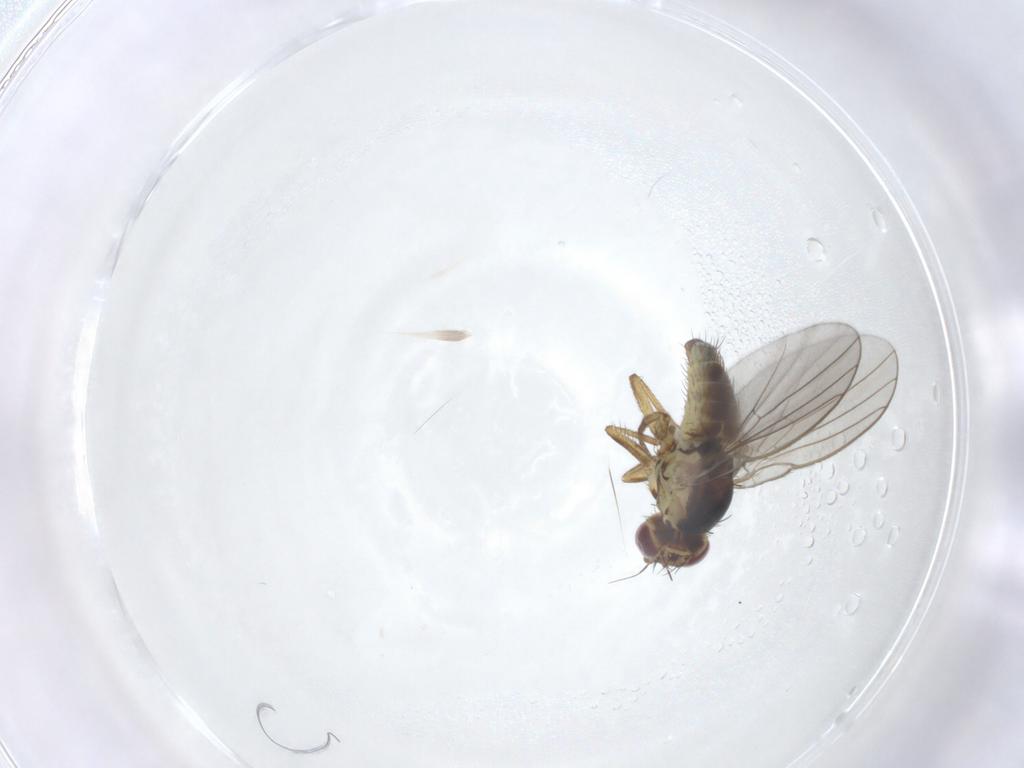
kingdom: Animalia
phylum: Arthropoda
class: Insecta
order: Diptera
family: Agromyzidae
